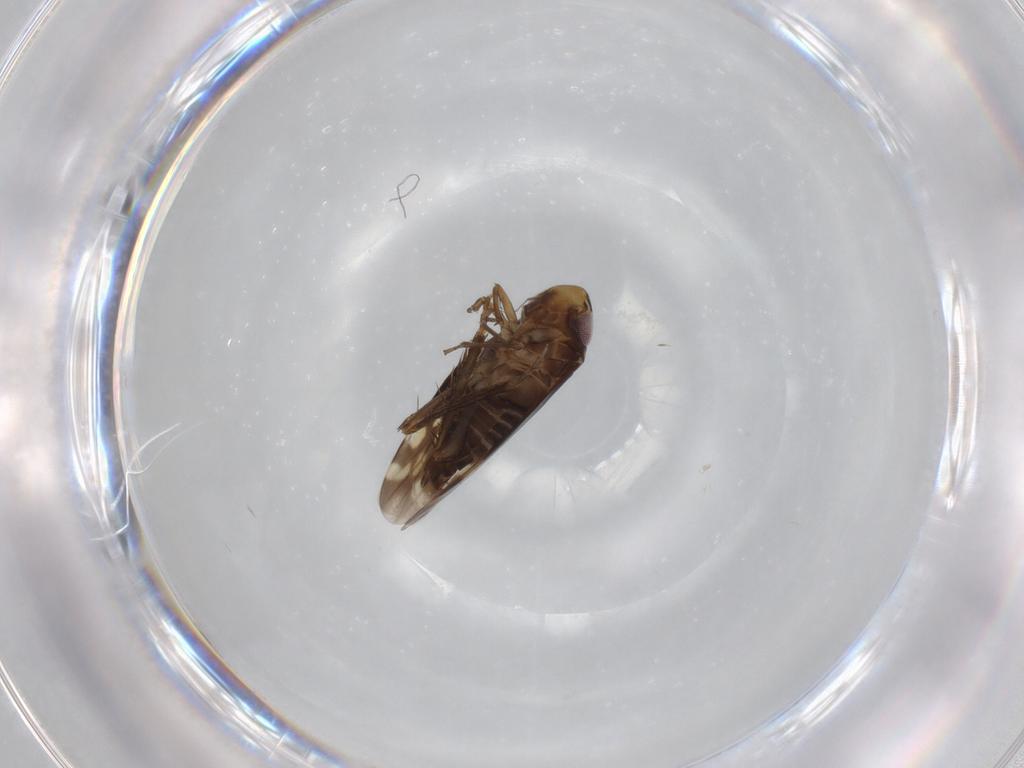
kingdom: Animalia
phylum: Arthropoda
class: Insecta
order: Hemiptera
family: Cicadellidae
